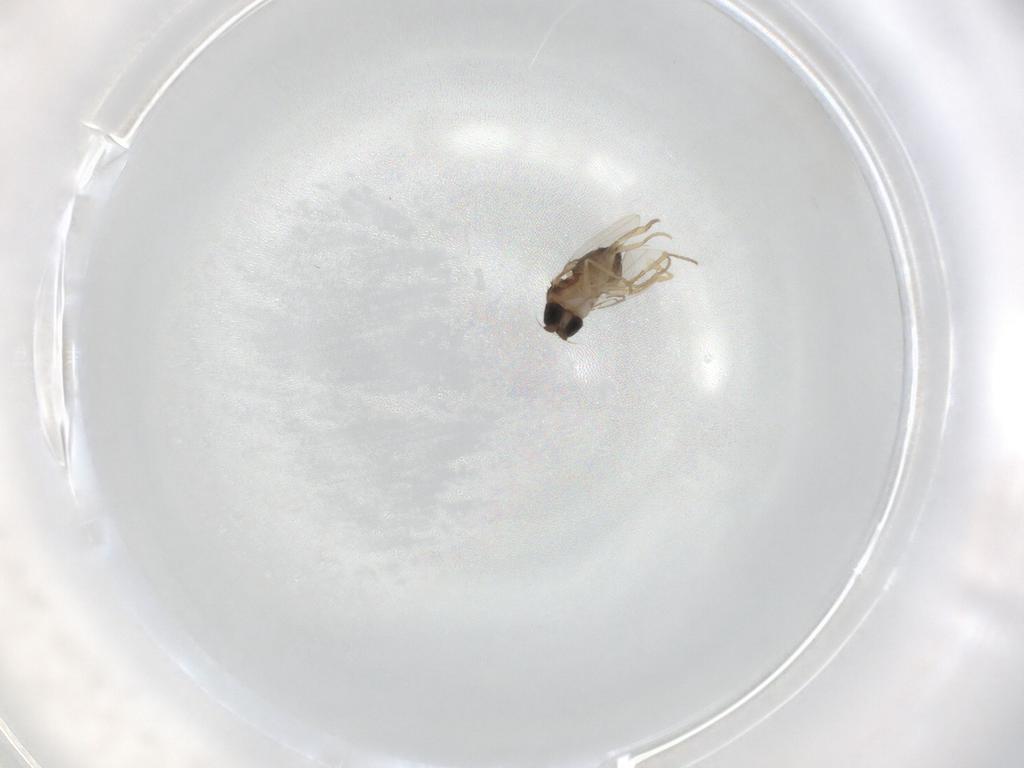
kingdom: Animalia
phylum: Arthropoda
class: Insecta
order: Diptera
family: Phoridae
